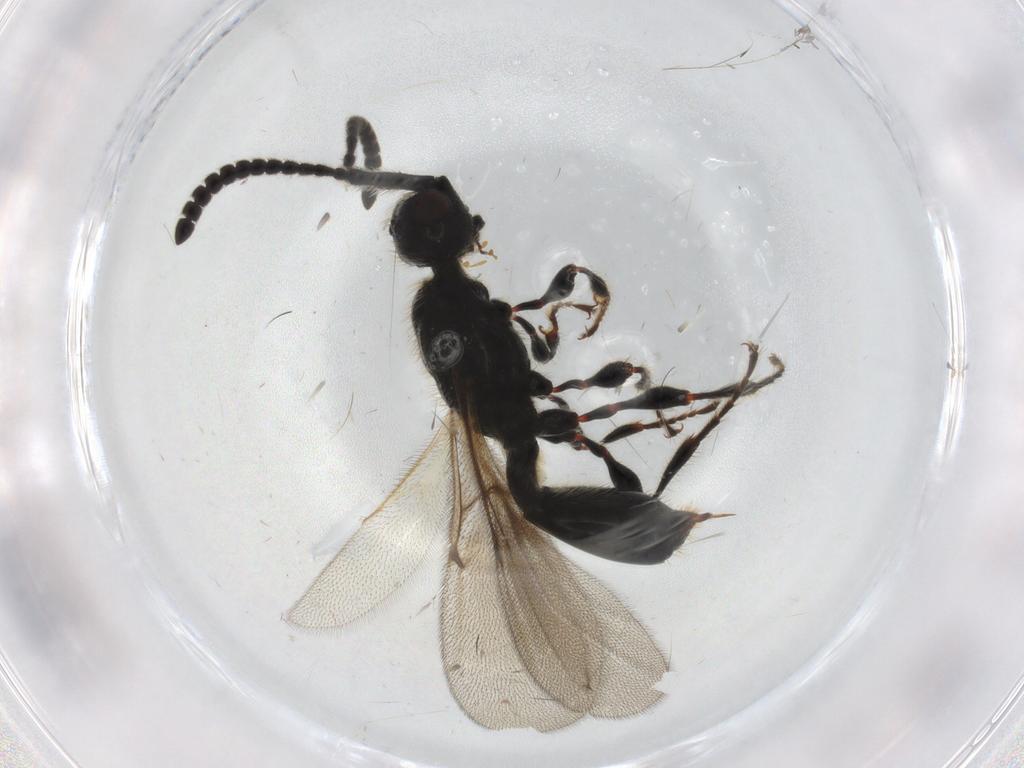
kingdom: Animalia
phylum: Arthropoda
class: Insecta
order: Hymenoptera
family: Diapriidae
